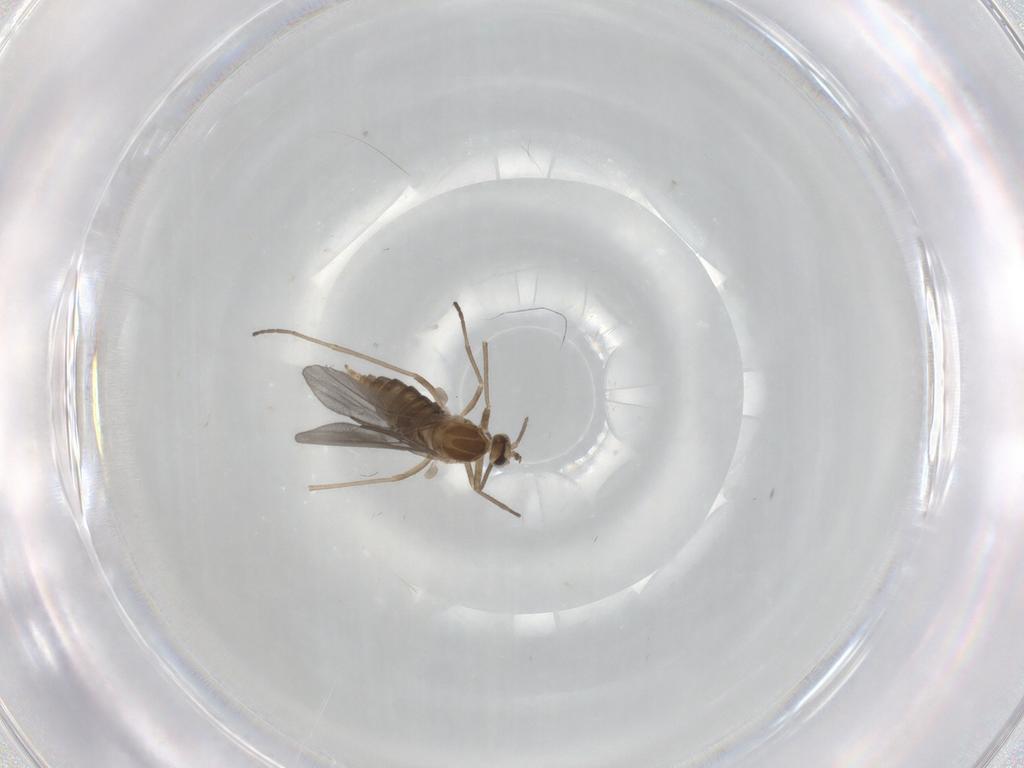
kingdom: Animalia
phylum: Arthropoda
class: Insecta
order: Diptera
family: Cecidomyiidae
